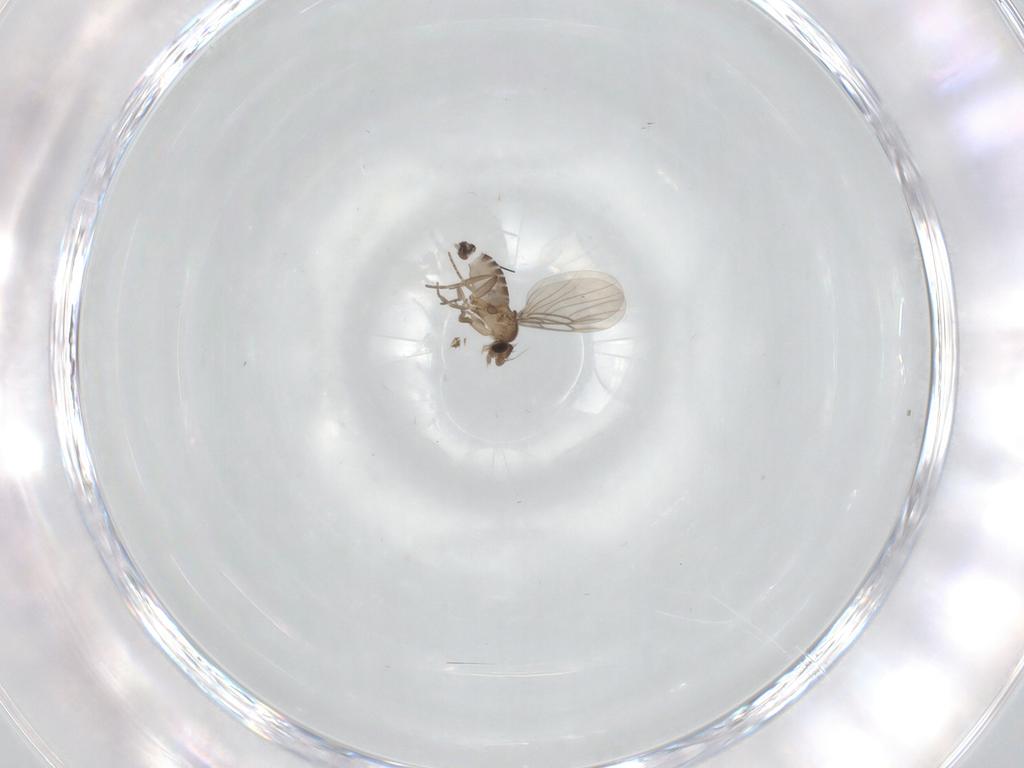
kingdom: Animalia
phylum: Arthropoda
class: Insecta
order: Diptera
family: Phoridae
